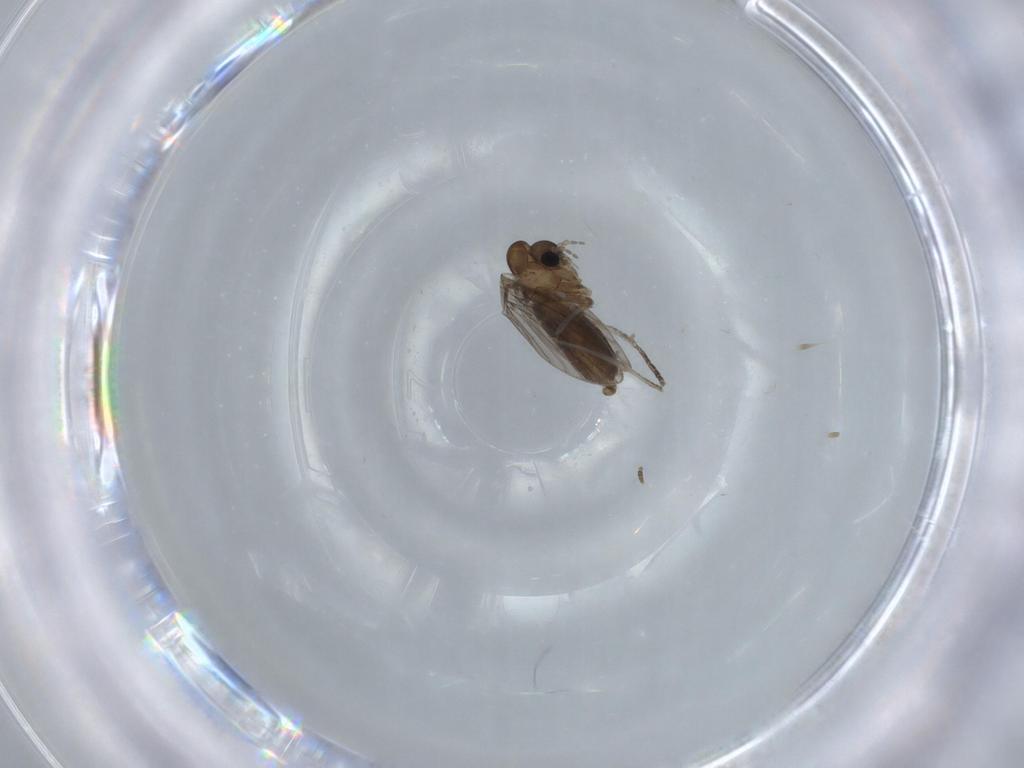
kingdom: Animalia
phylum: Arthropoda
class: Insecta
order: Diptera
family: Psychodidae
